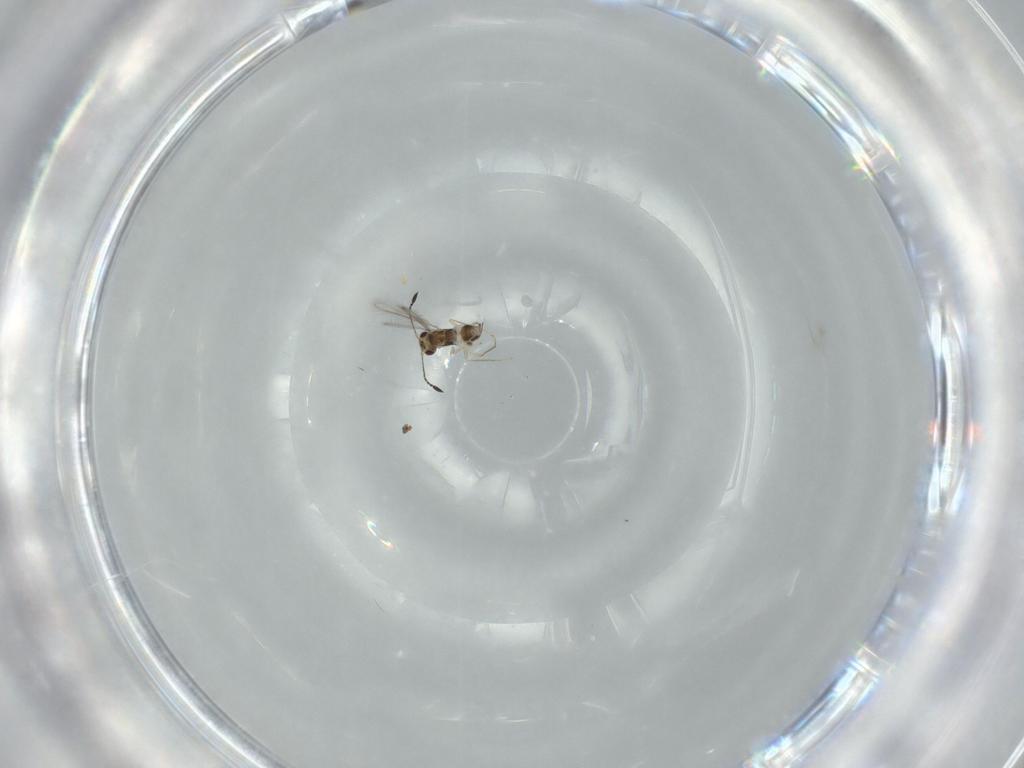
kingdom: Animalia
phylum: Arthropoda
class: Insecta
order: Hymenoptera
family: Mymaridae
